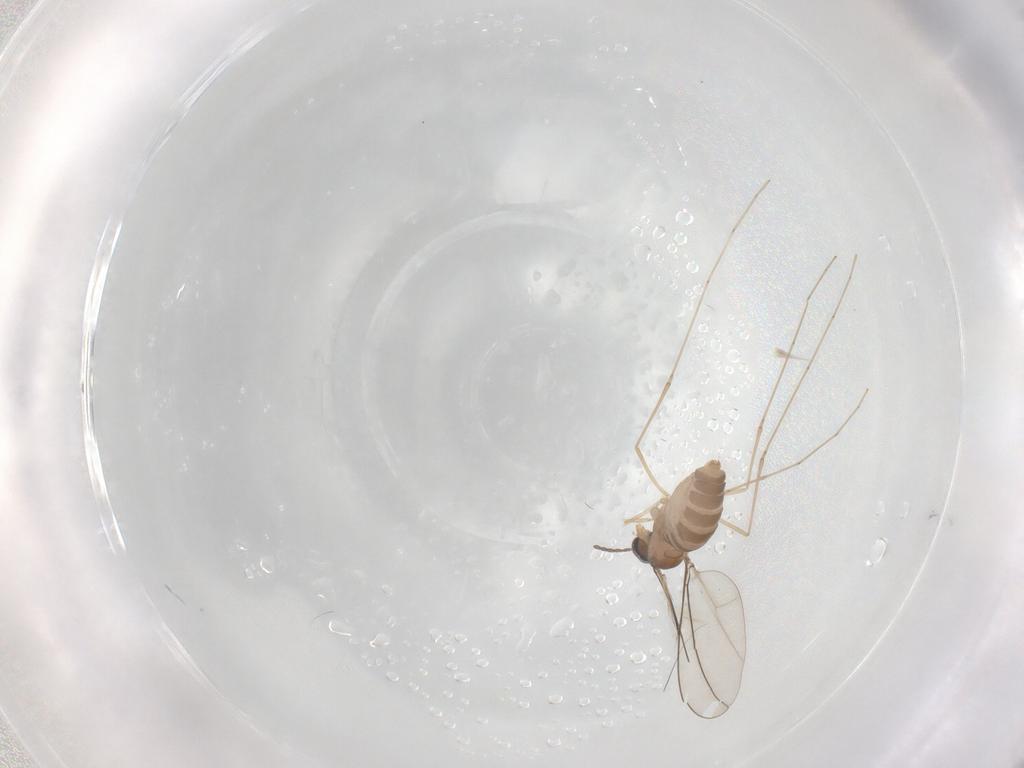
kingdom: Animalia
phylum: Arthropoda
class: Insecta
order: Diptera
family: Cecidomyiidae
